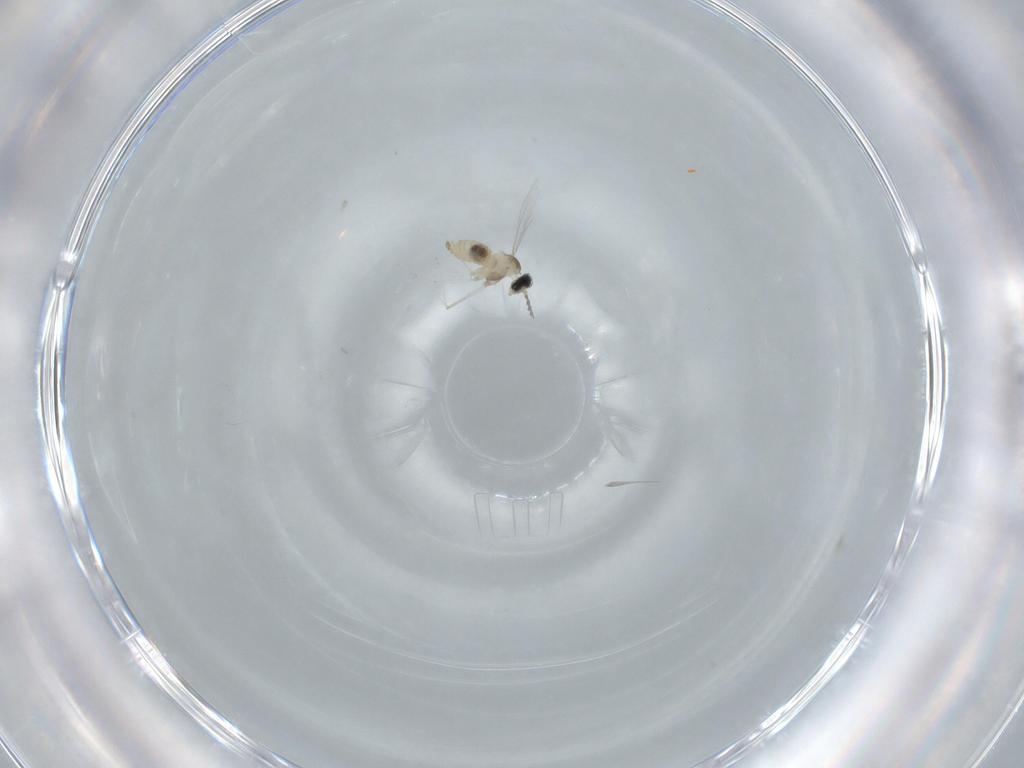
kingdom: Animalia
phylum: Arthropoda
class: Insecta
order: Diptera
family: Cecidomyiidae
